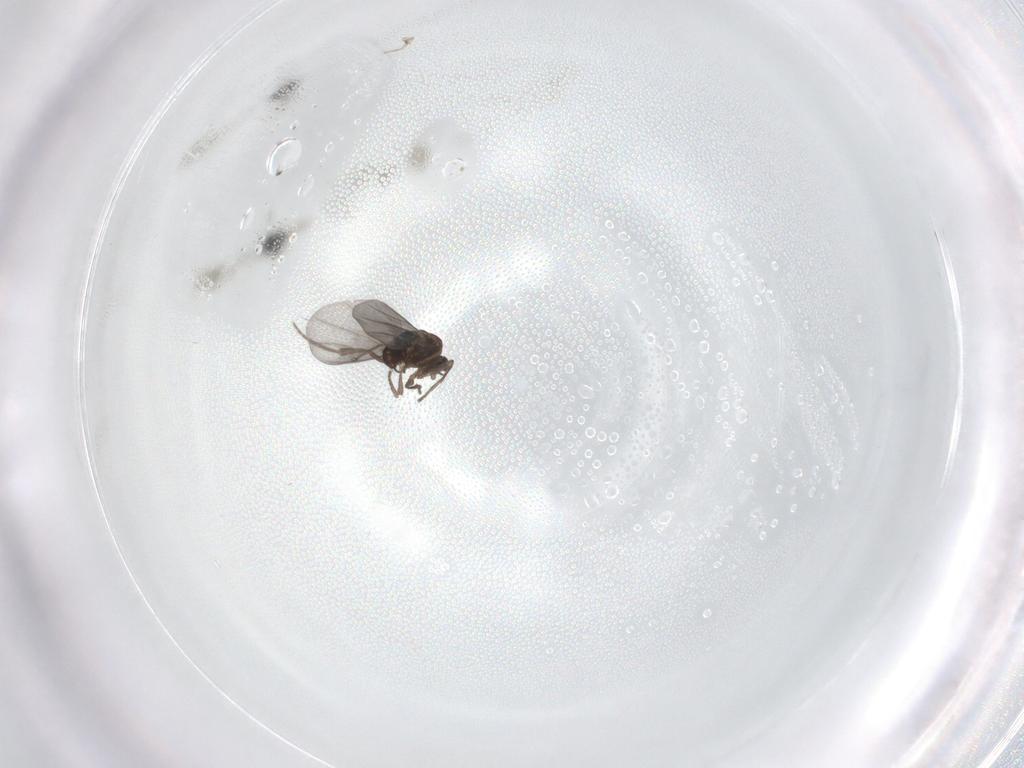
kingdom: Animalia
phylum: Arthropoda
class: Insecta
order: Diptera
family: Phoridae
